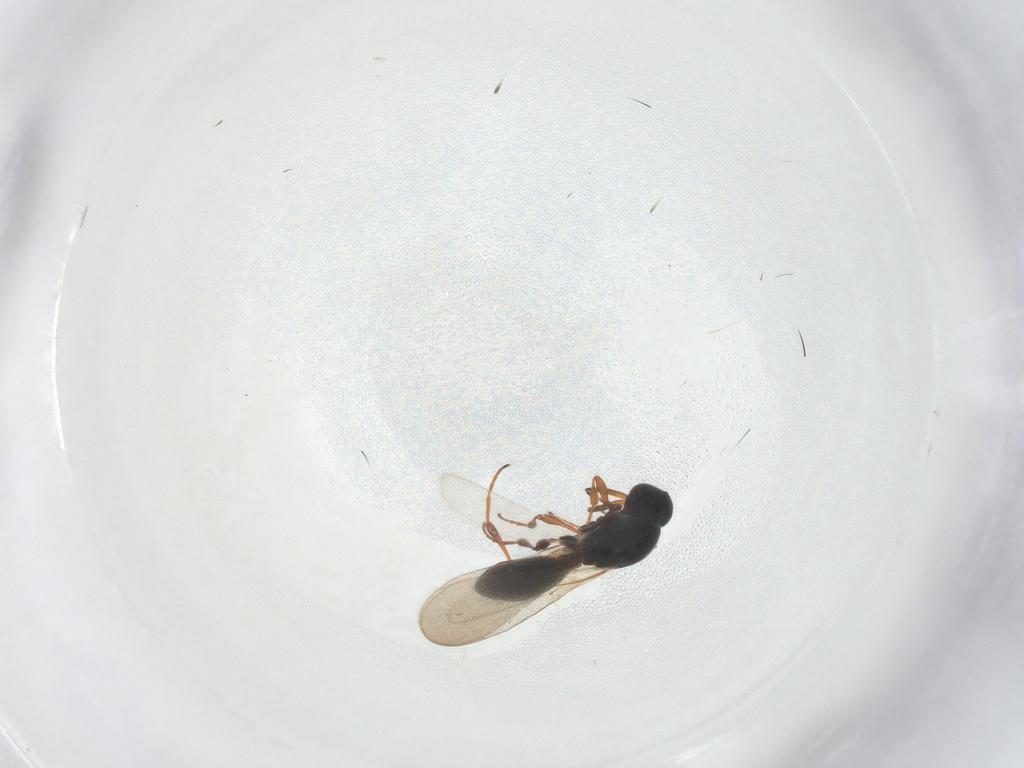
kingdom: Animalia
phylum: Arthropoda
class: Insecta
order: Hymenoptera
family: Platygastridae
